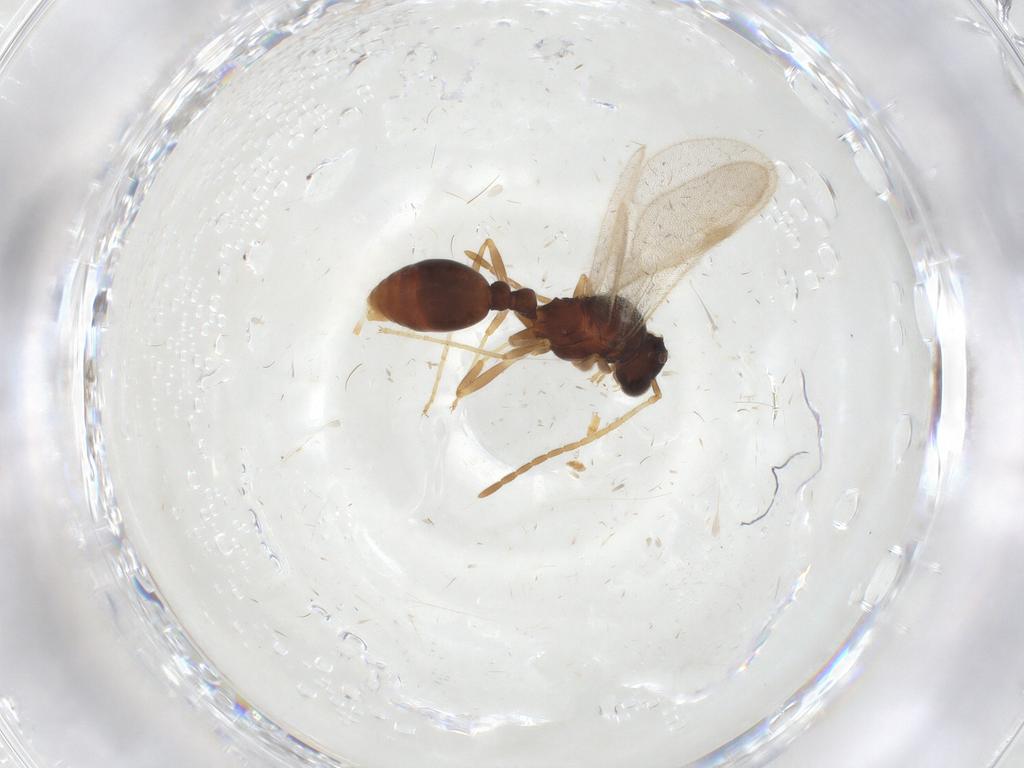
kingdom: Animalia
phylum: Arthropoda
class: Insecta
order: Hymenoptera
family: Formicidae
